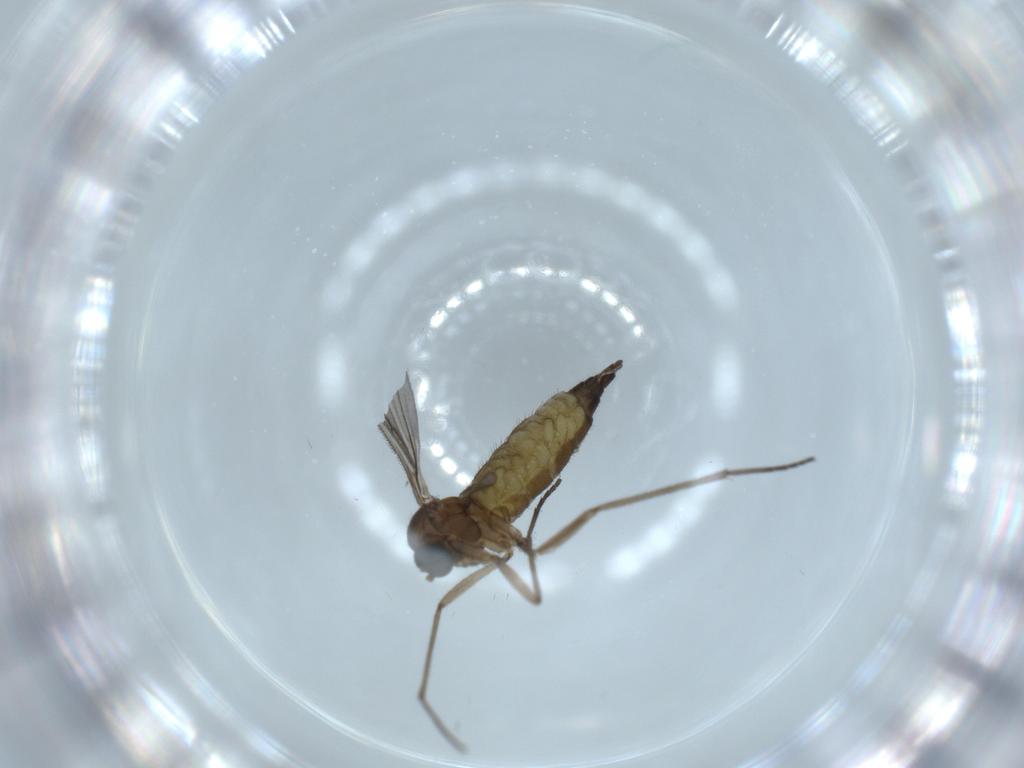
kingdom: Animalia
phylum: Arthropoda
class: Insecta
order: Diptera
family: Sciaridae
